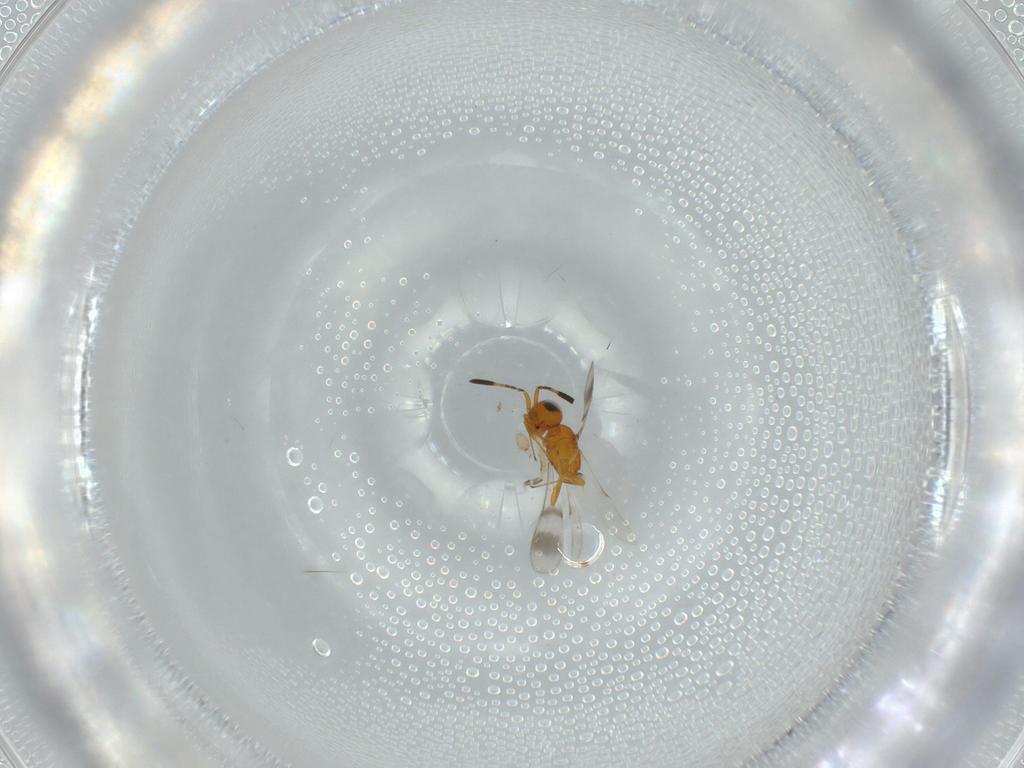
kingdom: Animalia
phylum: Arthropoda
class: Insecta
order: Hymenoptera
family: Scelionidae
